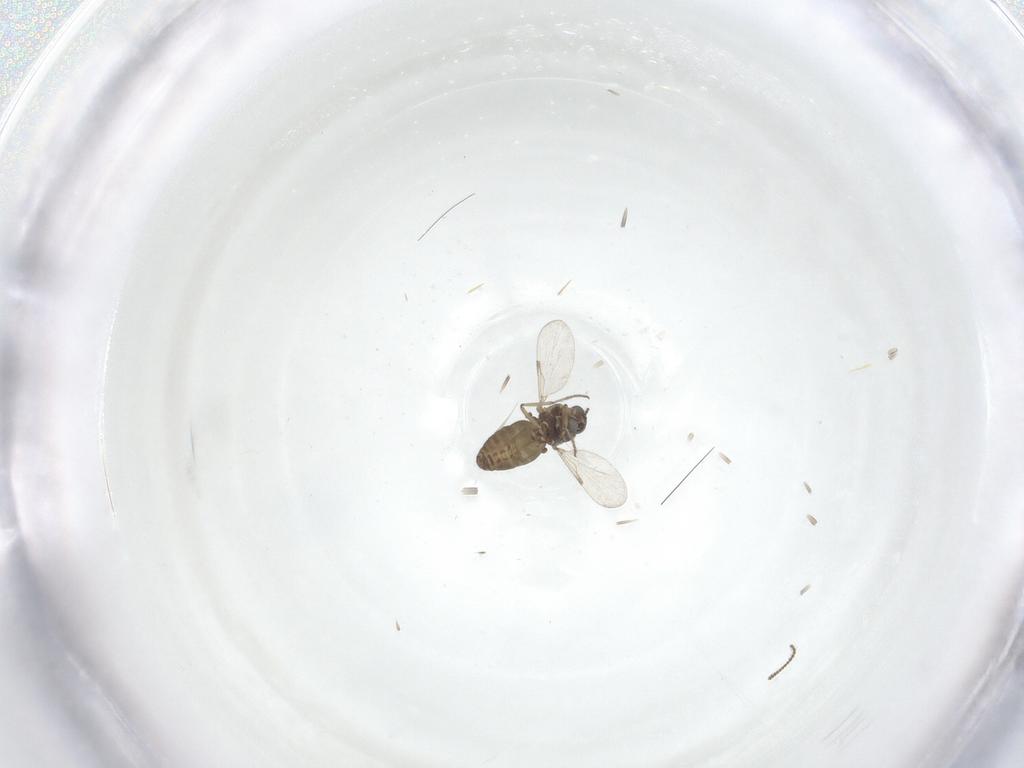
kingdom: Animalia
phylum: Arthropoda
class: Insecta
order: Diptera
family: Ceratopogonidae
